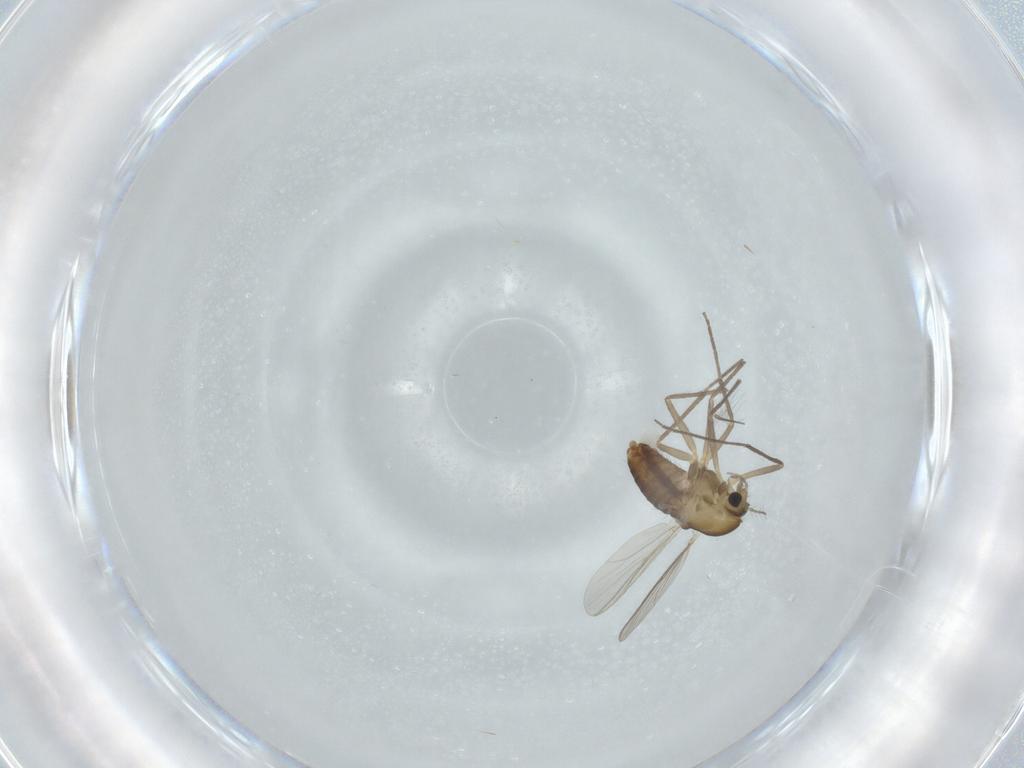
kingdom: Animalia
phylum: Arthropoda
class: Insecta
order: Diptera
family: Chironomidae
